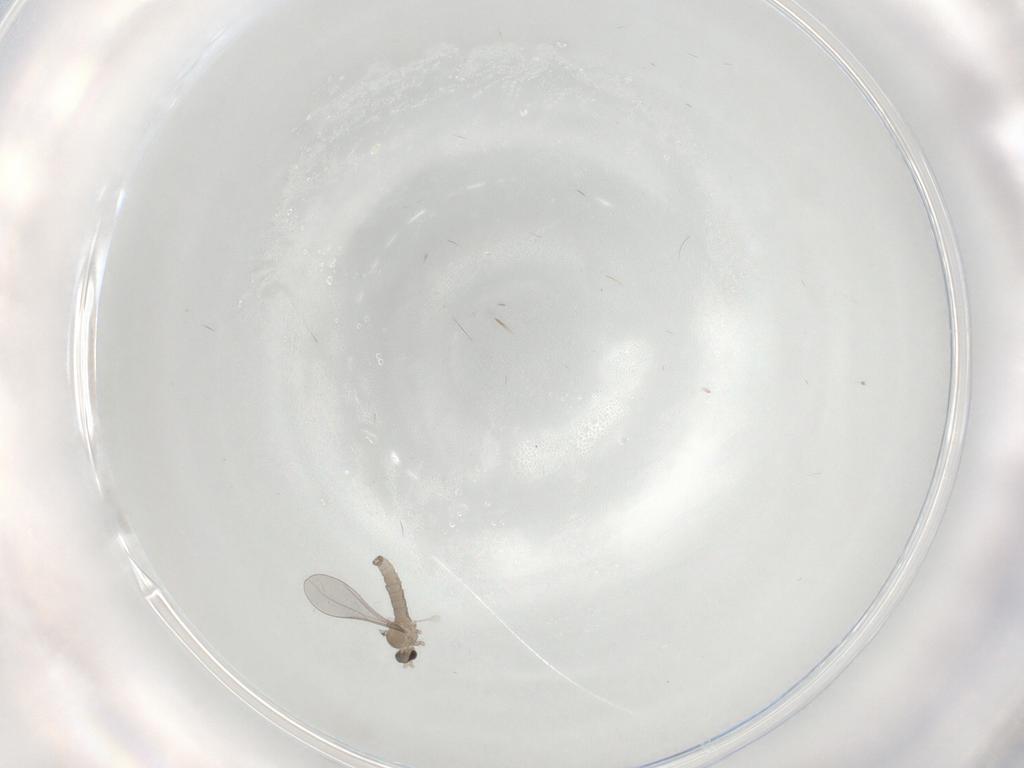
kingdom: Animalia
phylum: Arthropoda
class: Insecta
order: Diptera
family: Cecidomyiidae
